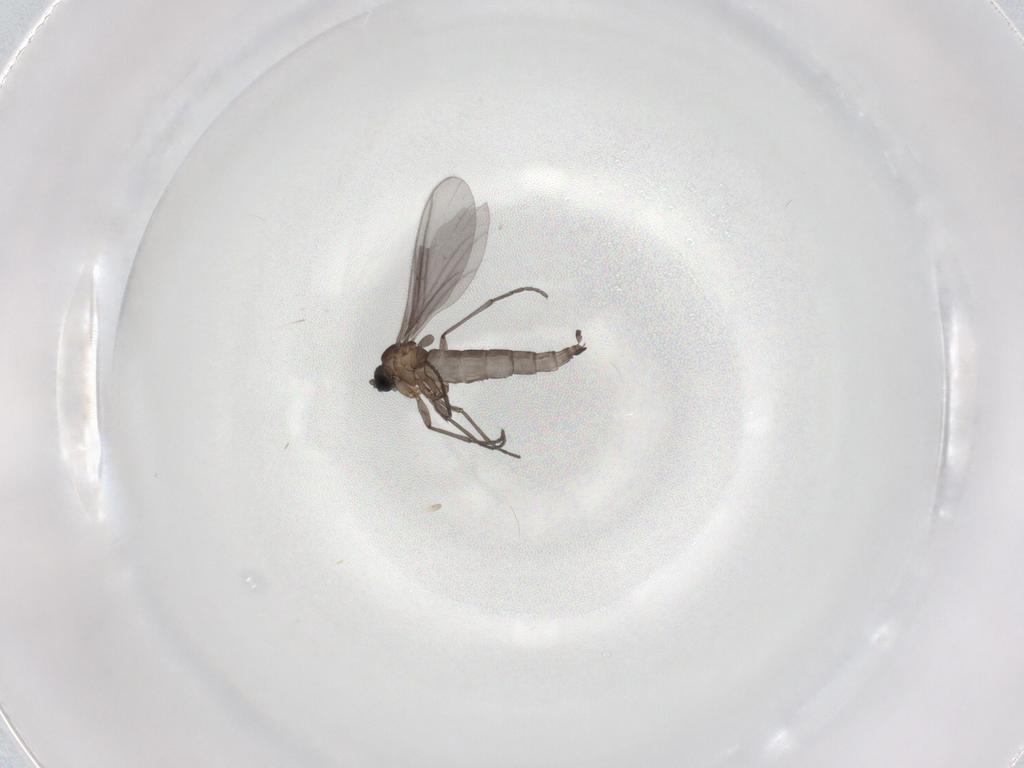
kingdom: Animalia
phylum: Arthropoda
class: Insecta
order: Diptera
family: Sciaridae
